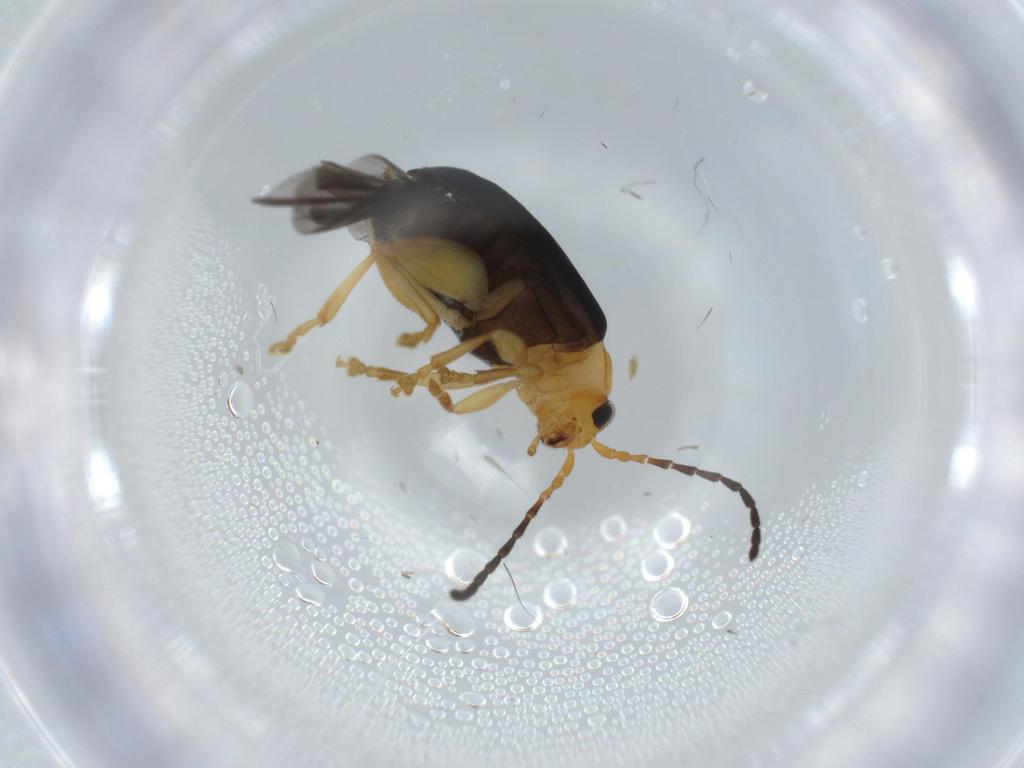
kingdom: Animalia
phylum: Arthropoda
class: Insecta
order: Coleoptera
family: Chrysomelidae
